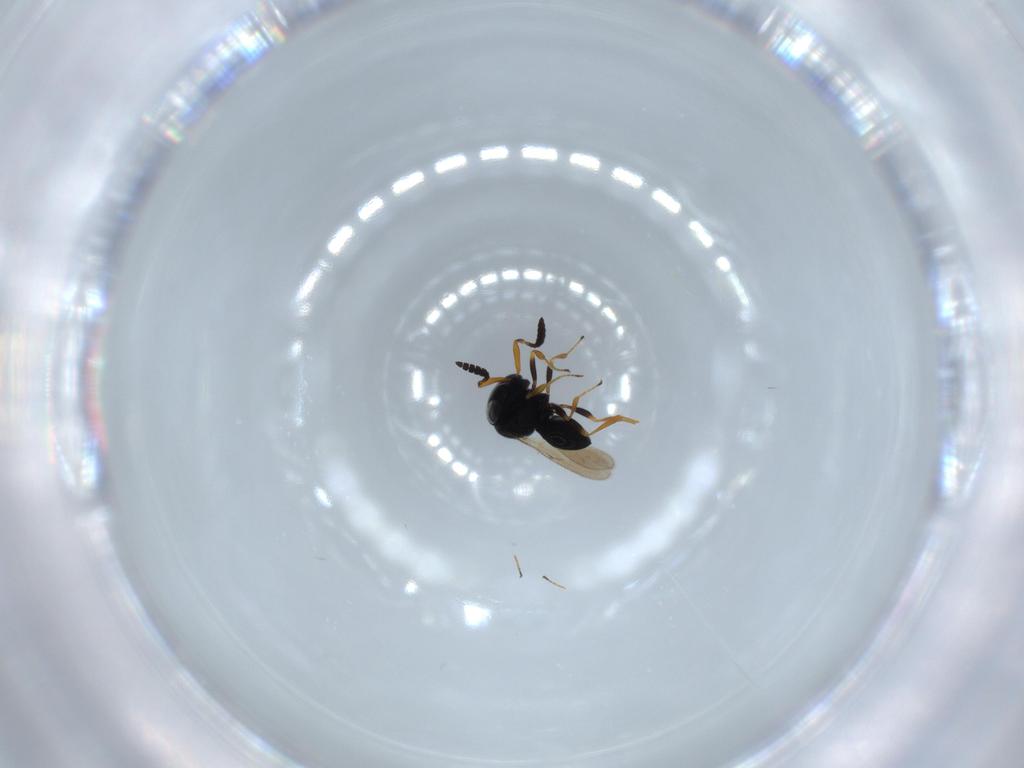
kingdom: Animalia
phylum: Arthropoda
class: Insecta
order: Hymenoptera
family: Scelionidae
